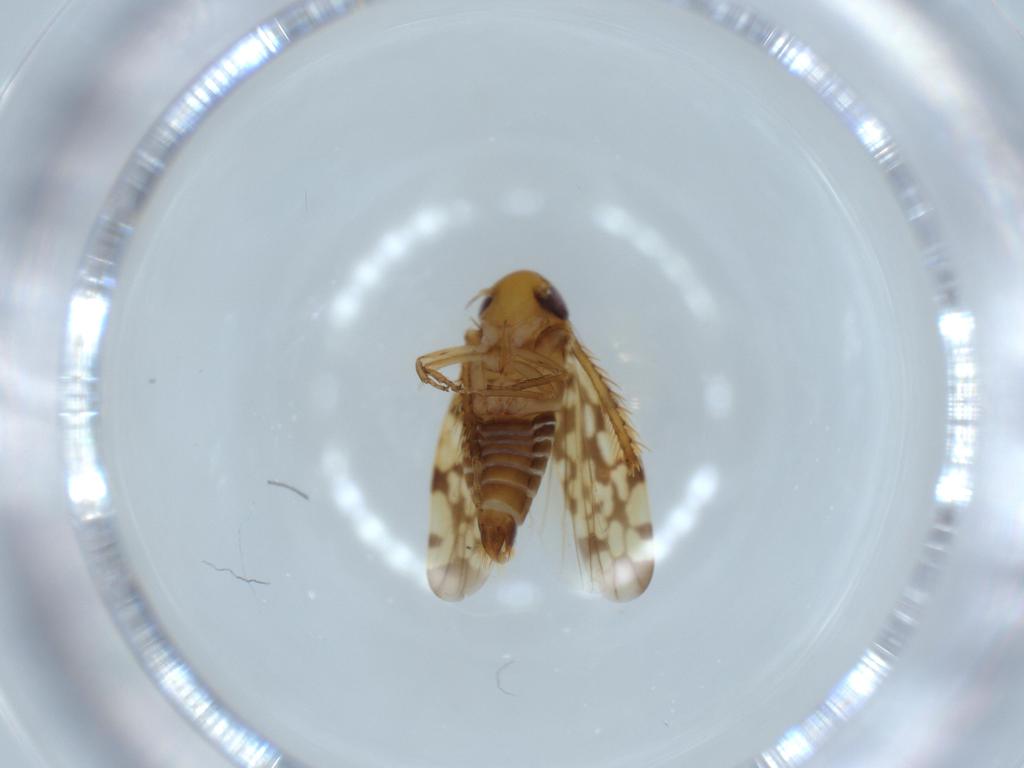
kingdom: Animalia
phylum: Arthropoda
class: Insecta
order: Hemiptera
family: Cicadellidae
